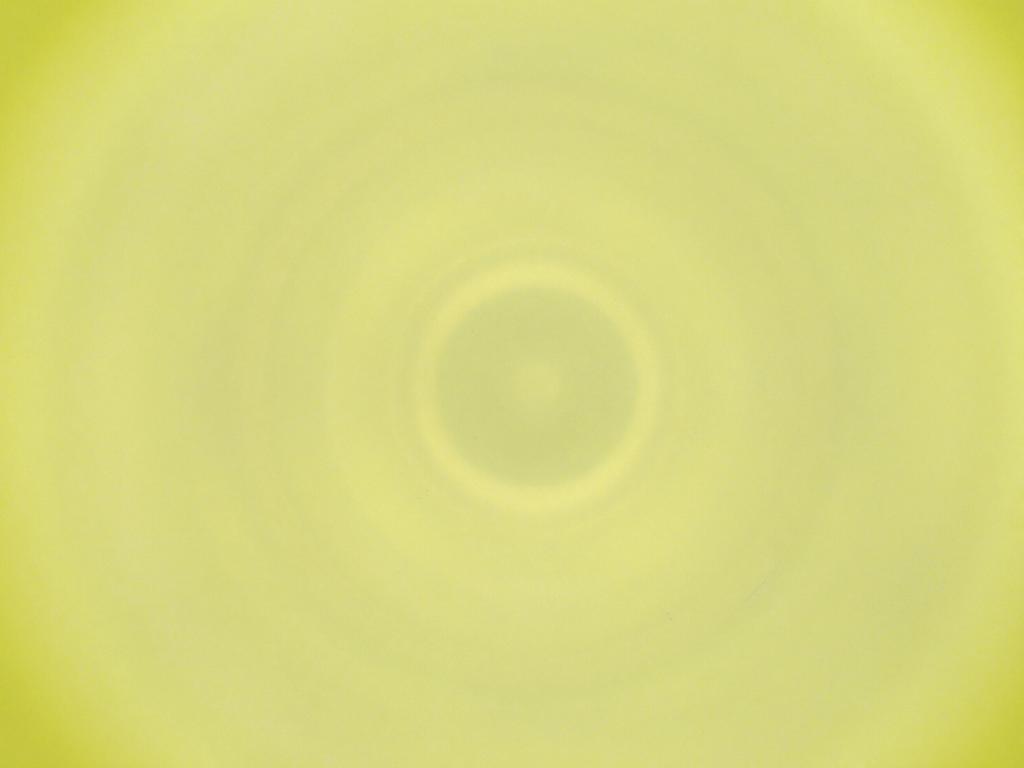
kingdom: Animalia
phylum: Arthropoda
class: Insecta
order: Diptera
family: Cecidomyiidae
